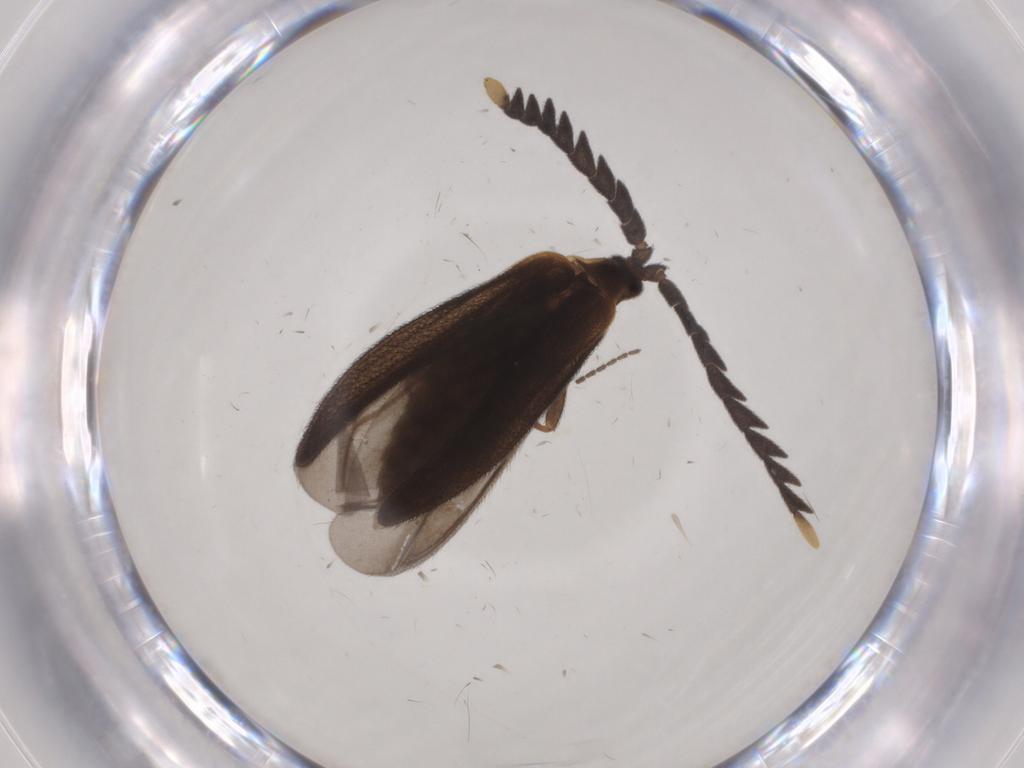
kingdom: Animalia
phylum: Arthropoda
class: Insecta
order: Coleoptera
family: Lycidae
